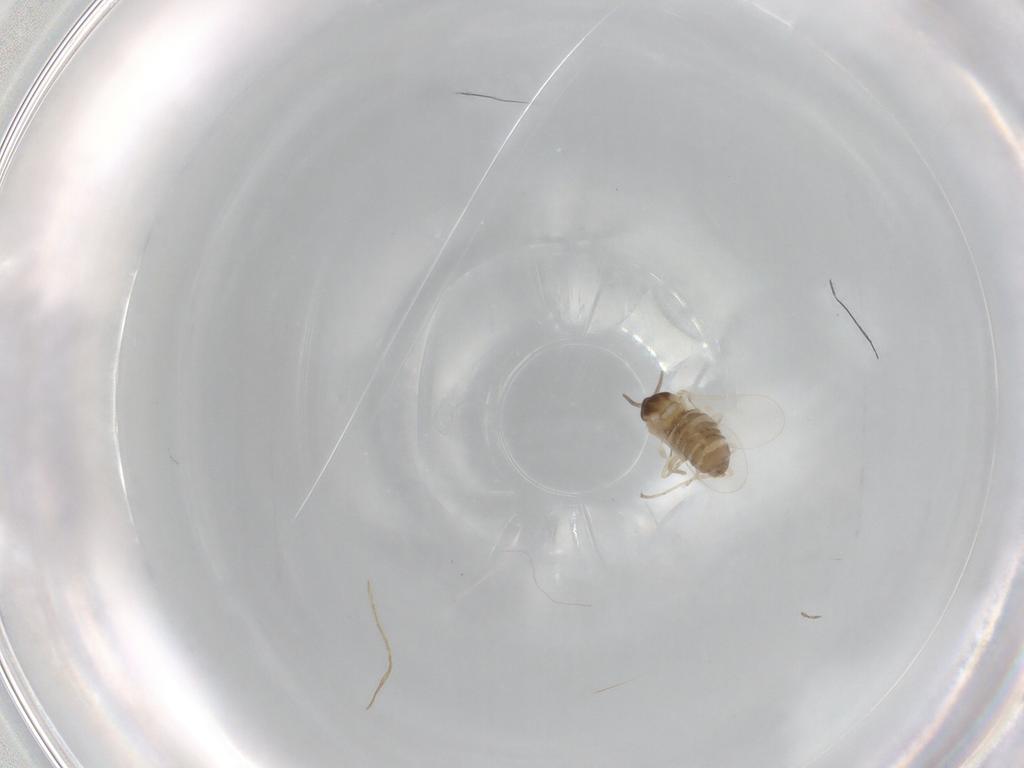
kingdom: Animalia
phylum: Arthropoda
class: Insecta
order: Diptera
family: Cecidomyiidae
